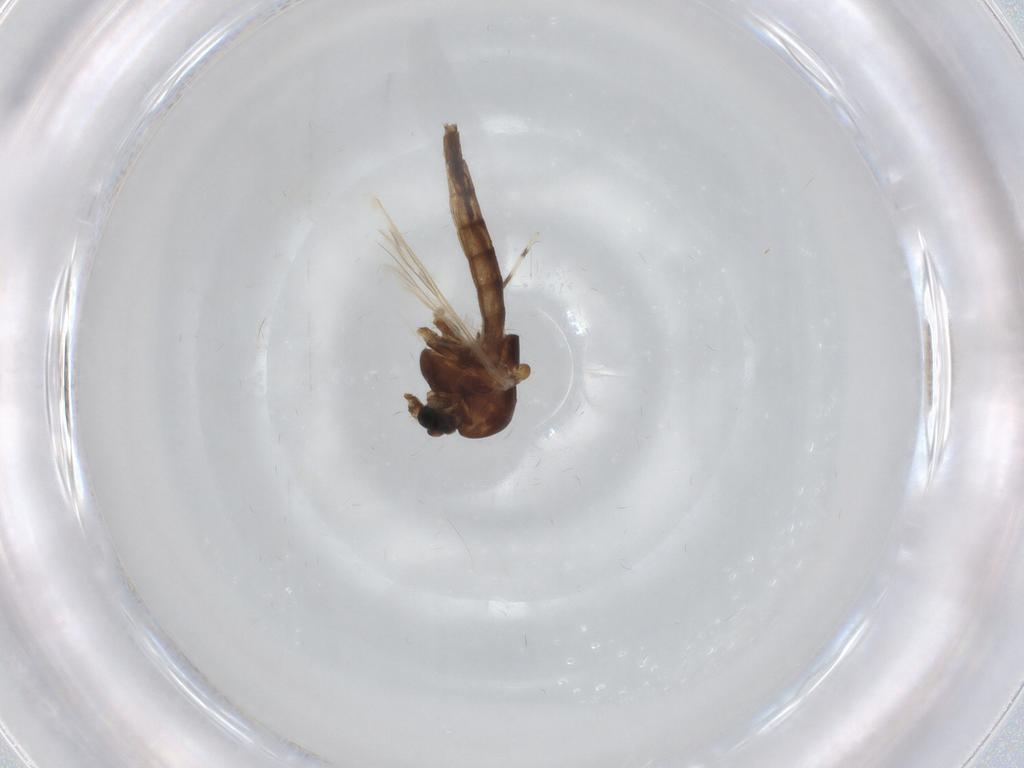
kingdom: Animalia
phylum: Arthropoda
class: Insecta
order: Diptera
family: Chironomidae
